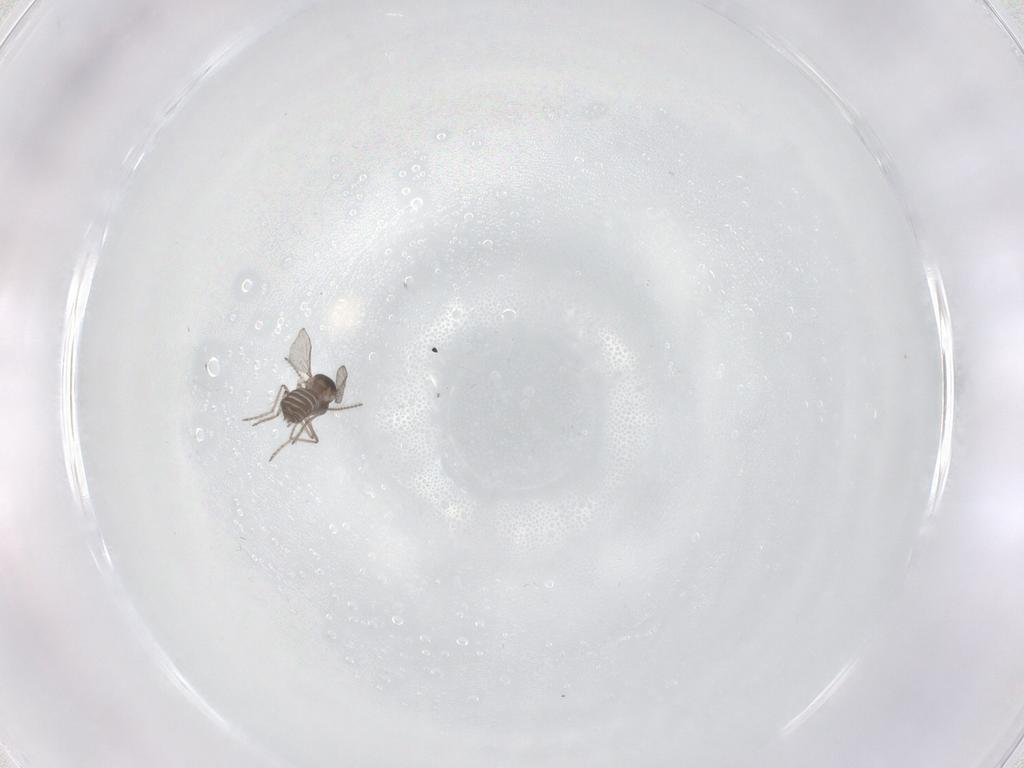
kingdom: Animalia
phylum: Arthropoda
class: Insecta
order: Diptera
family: Ceratopogonidae
